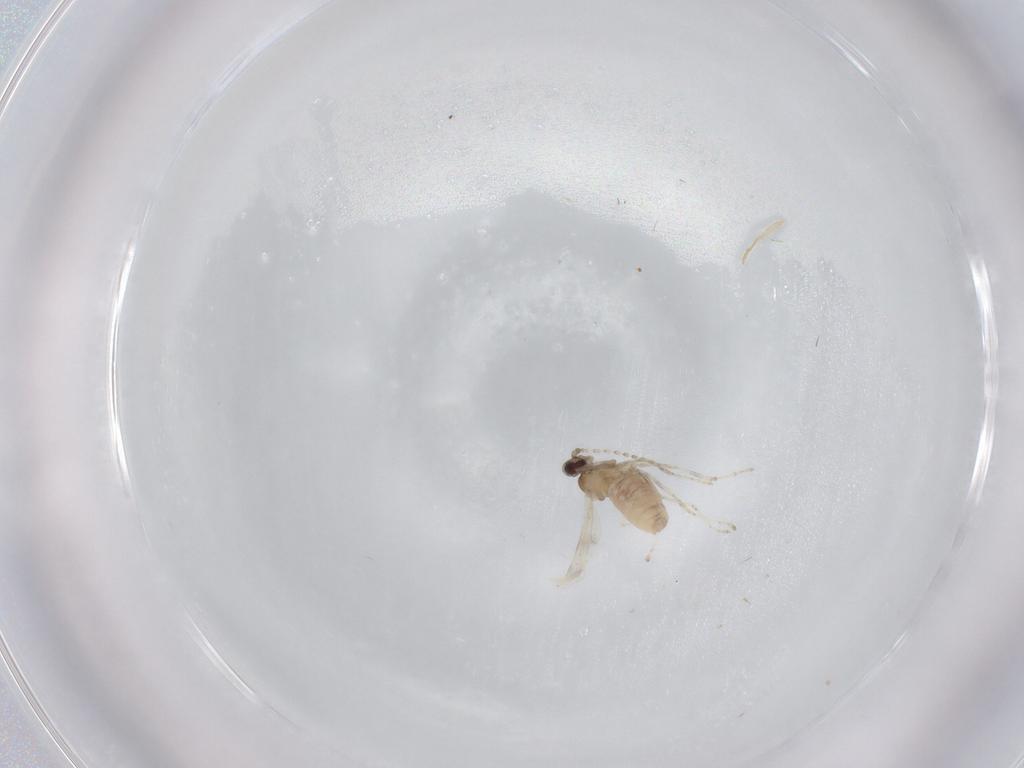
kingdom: Animalia
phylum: Arthropoda
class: Insecta
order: Diptera
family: Cecidomyiidae
